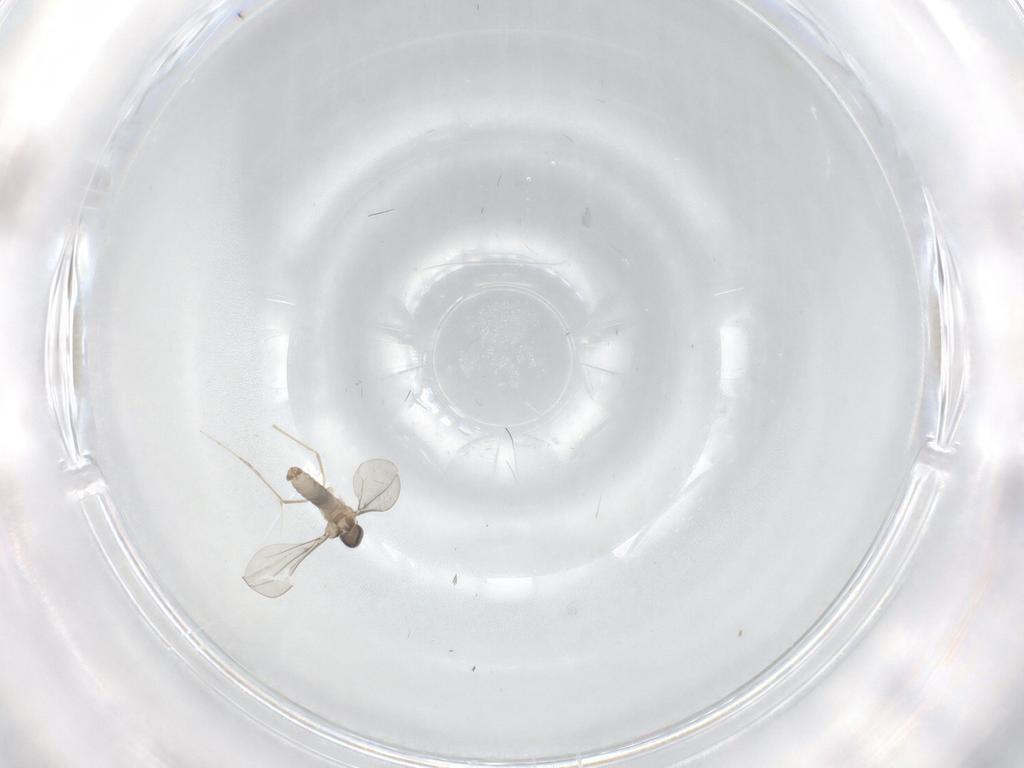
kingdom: Animalia
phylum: Arthropoda
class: Insecta
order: Diptera
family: Cecidomyiidae
